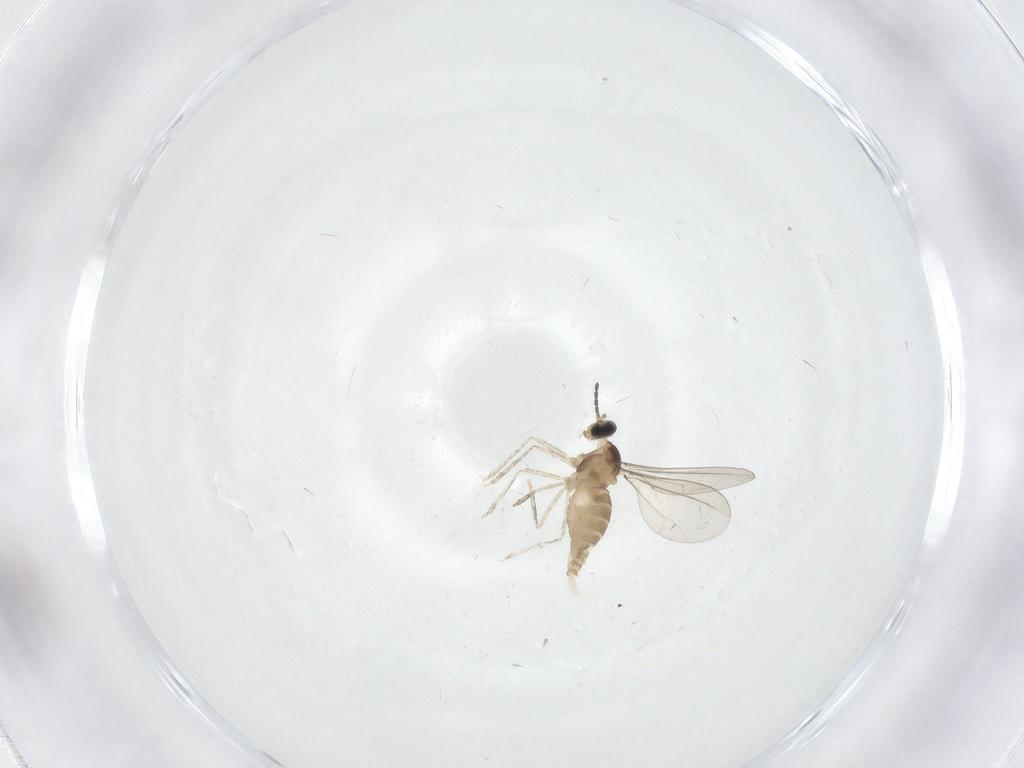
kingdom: Animalia
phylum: Arthropoda
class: Insecta
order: Diptera
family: Cecidomyiidae
